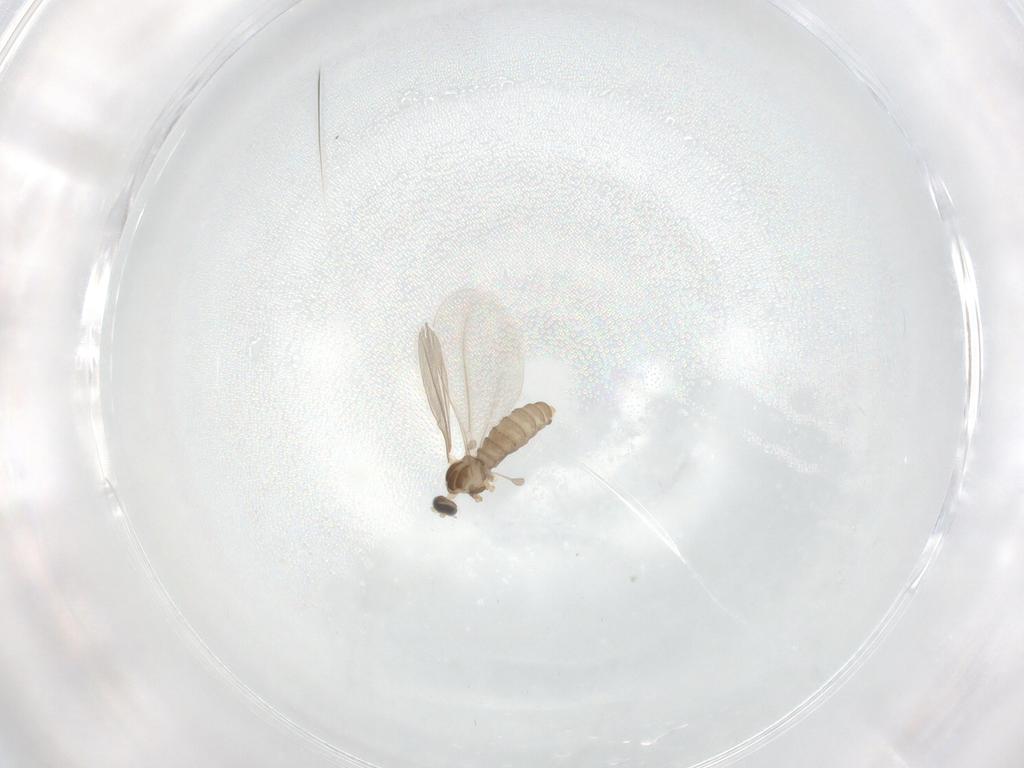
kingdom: Animalia
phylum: Arthropoda
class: Insecta
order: Diptera
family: Cecidomyiidae
